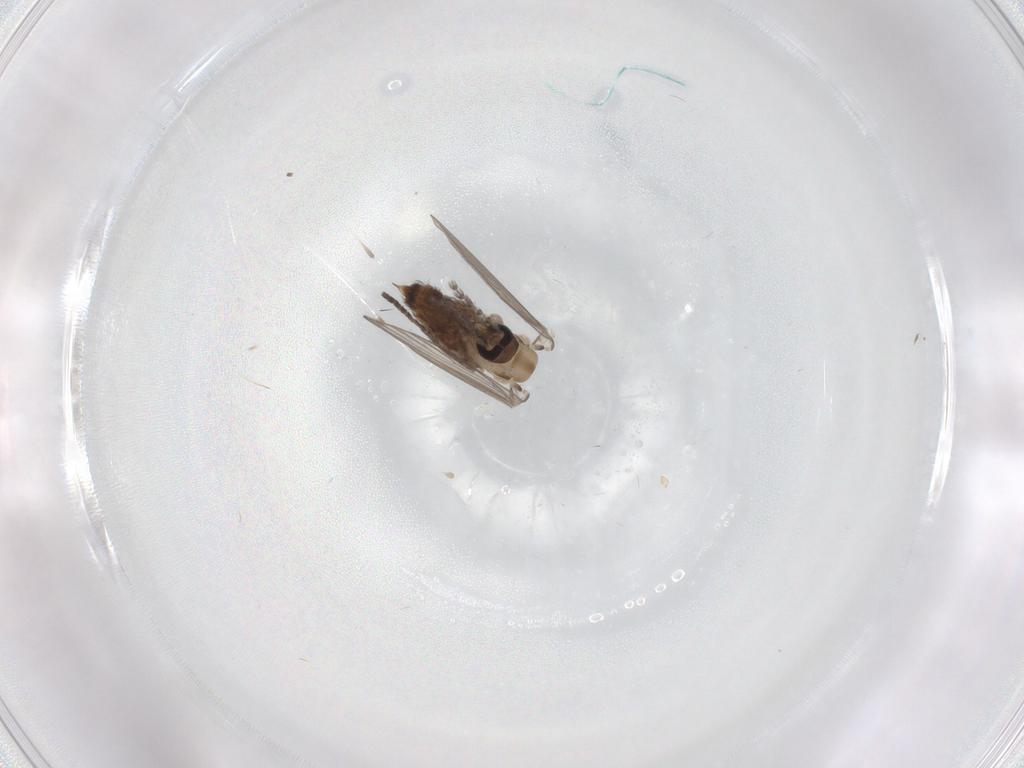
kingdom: Animalia
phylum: Arthropoda
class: Insecta
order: Diptera
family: Psychodidae
